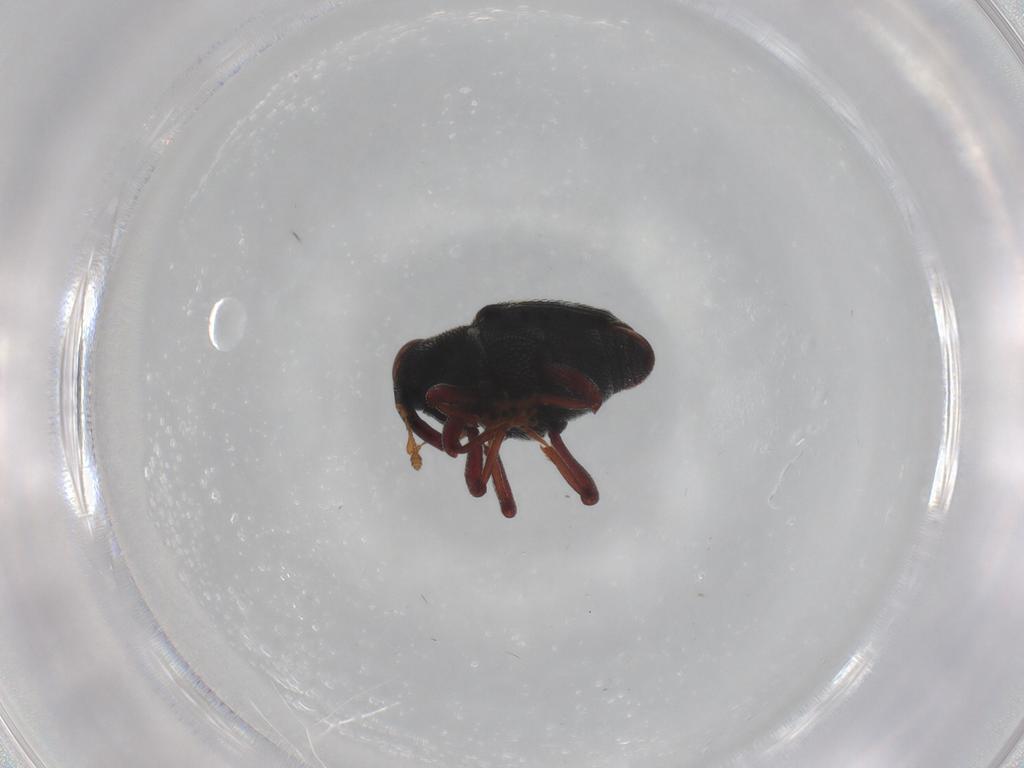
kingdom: Animalia
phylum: Arthropoda
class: Insecta
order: Coleoptera
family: Curculionidae
